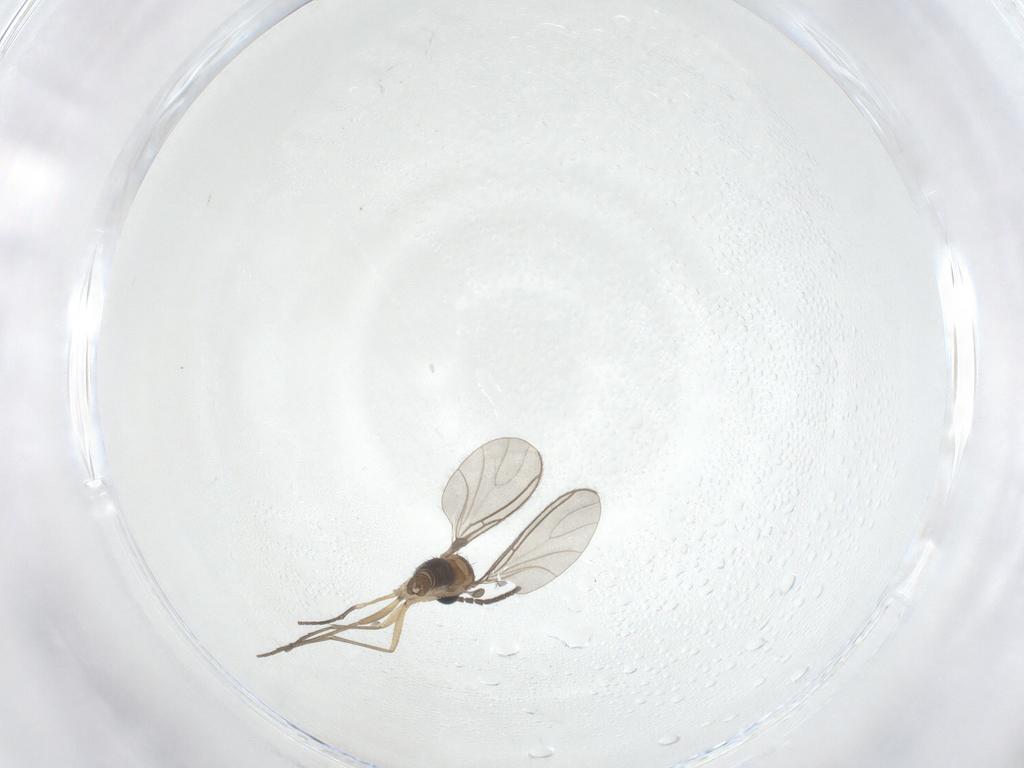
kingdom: Animalia
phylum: Arthropoda
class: Insecta
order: Diptera
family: Sciaridae
